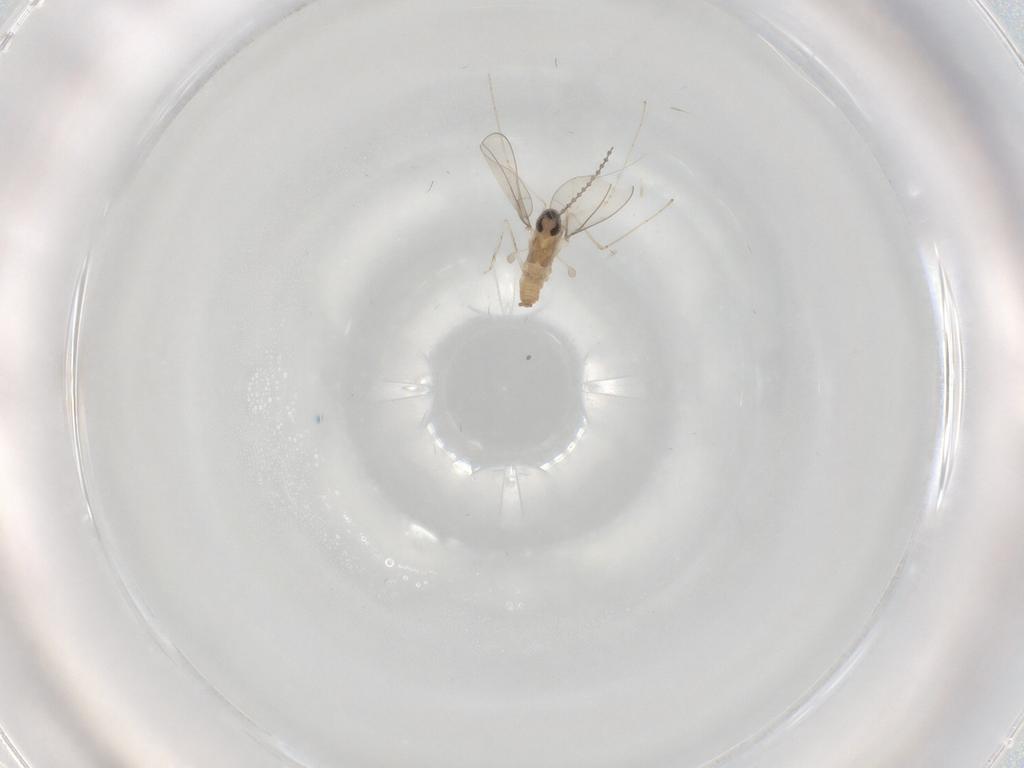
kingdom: Animalia
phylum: Arthropoda
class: Insecta
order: Diptera
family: Cecidomyiidae
